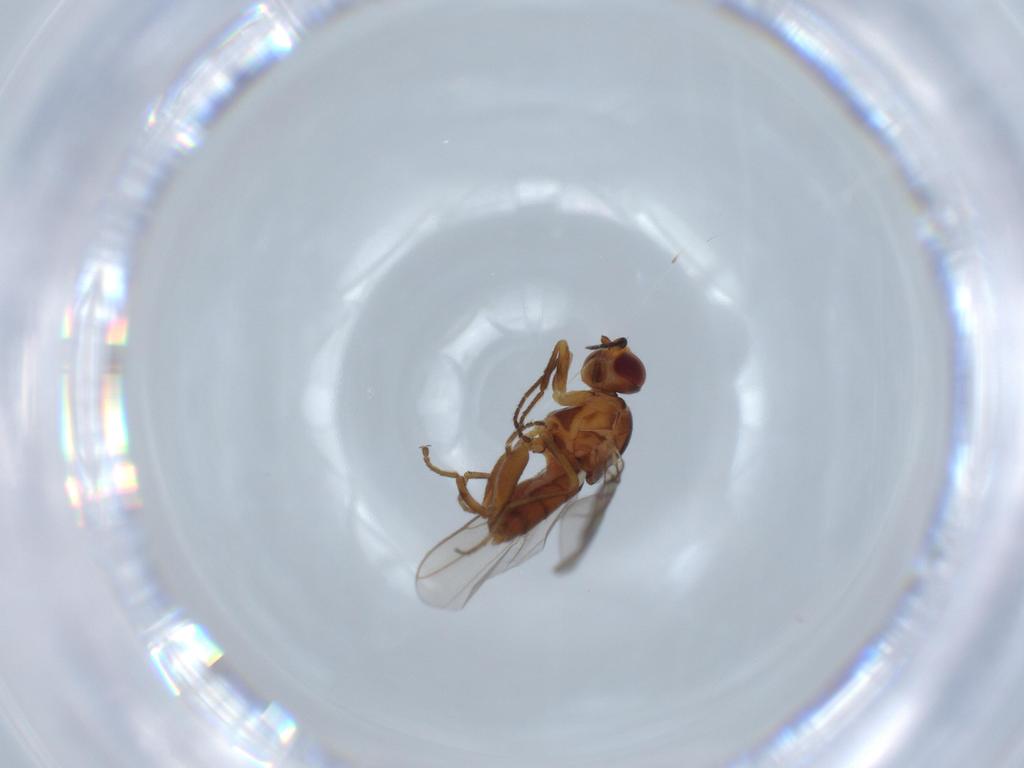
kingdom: Animalia
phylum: Arthropoda
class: Insecta
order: Diptera
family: Chloropidae
